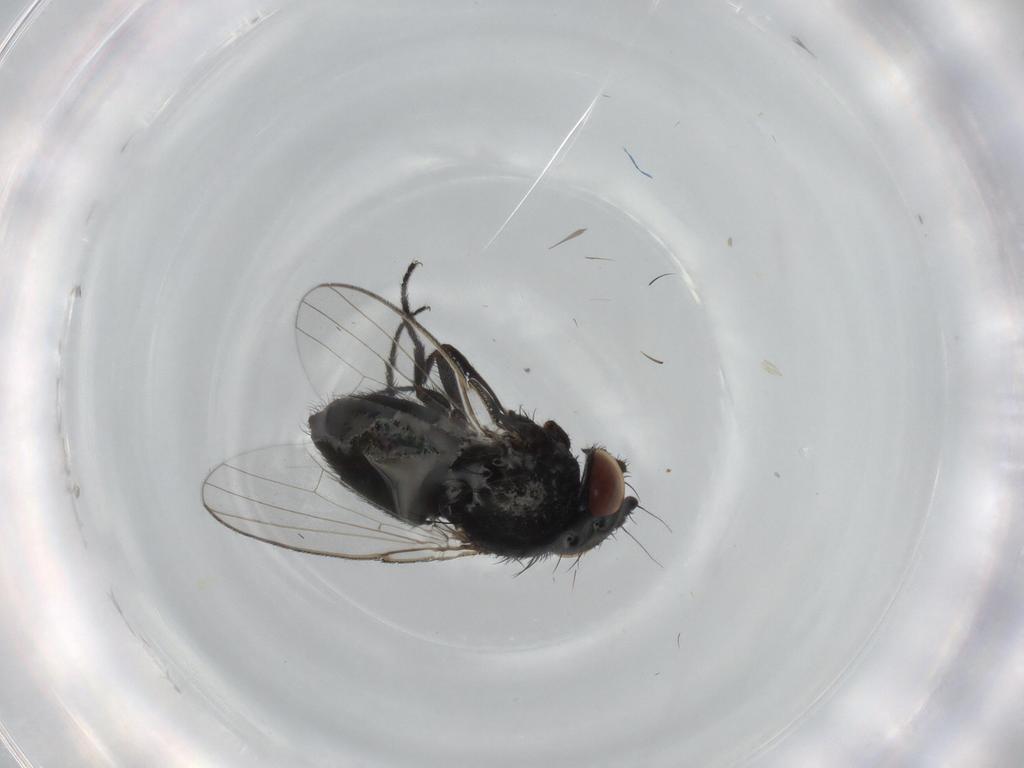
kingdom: Animalia
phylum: Arthropoda
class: Insecta
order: Diptera
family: Milichiidae
